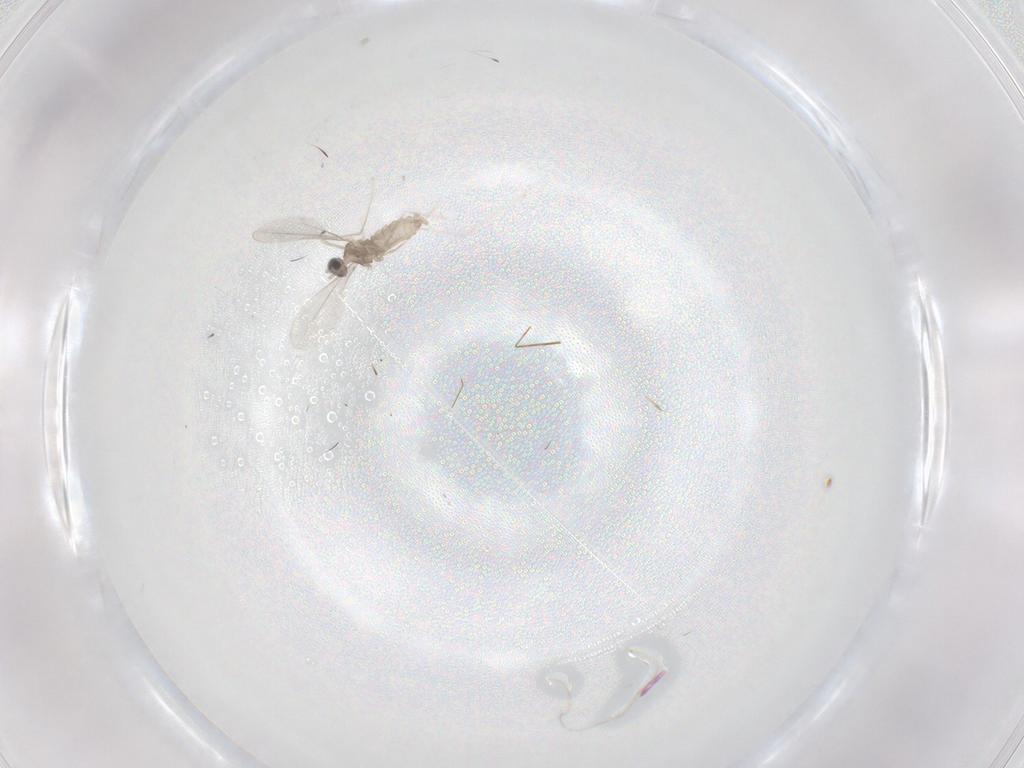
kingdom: Animalia
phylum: Arthropoda
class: Insecta
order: Diptera
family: Cecidomyiidae
